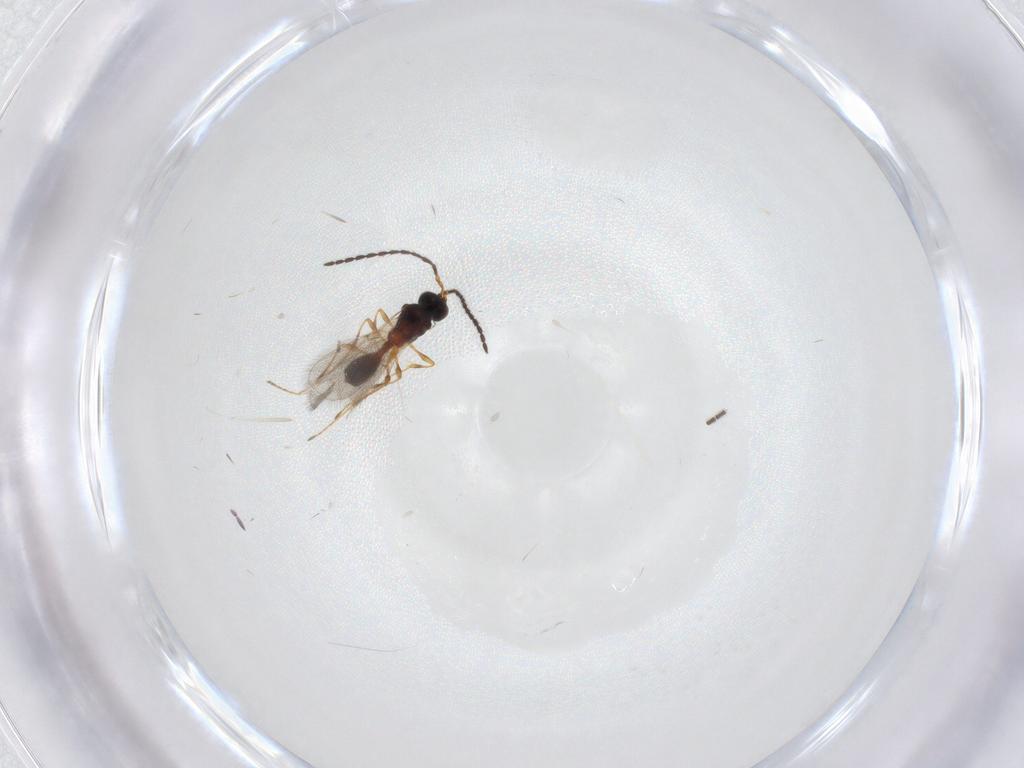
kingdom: Animalia
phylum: Arthropoda
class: Insecta
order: Hymenoptera
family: Diapriidae
